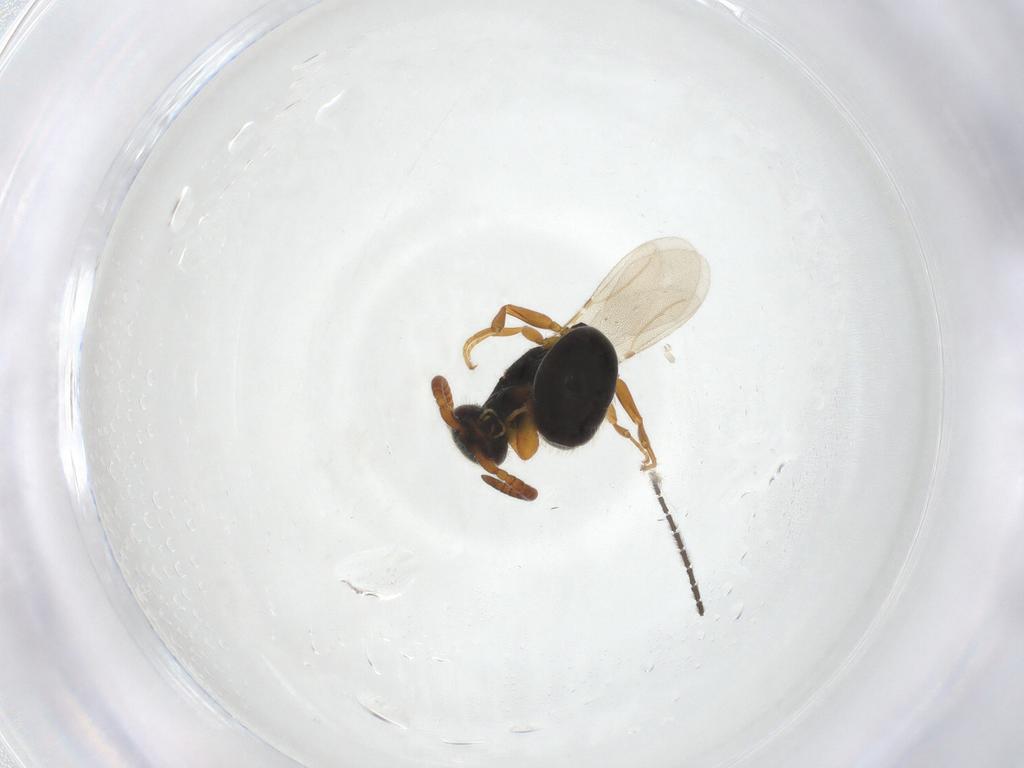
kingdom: Animalia
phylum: Arthropoda
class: Insecta
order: Hymenoptera
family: Bethylidae
